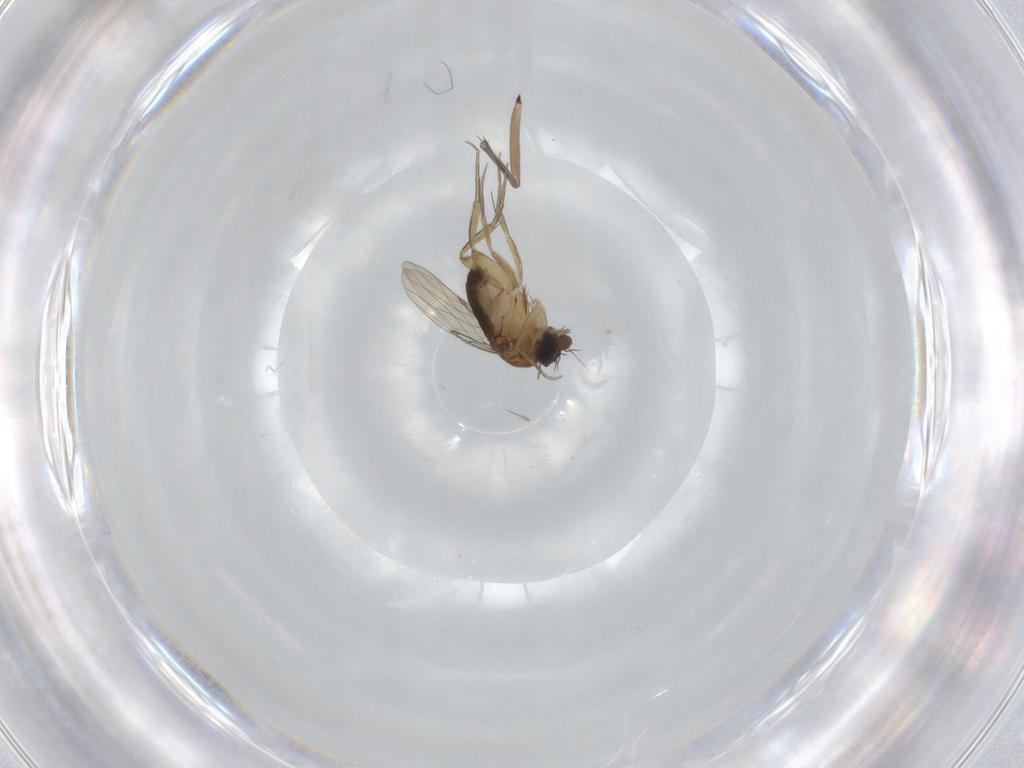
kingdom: Animalia
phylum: Arthropoda
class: Insecta
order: Diptera
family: Phoridae
